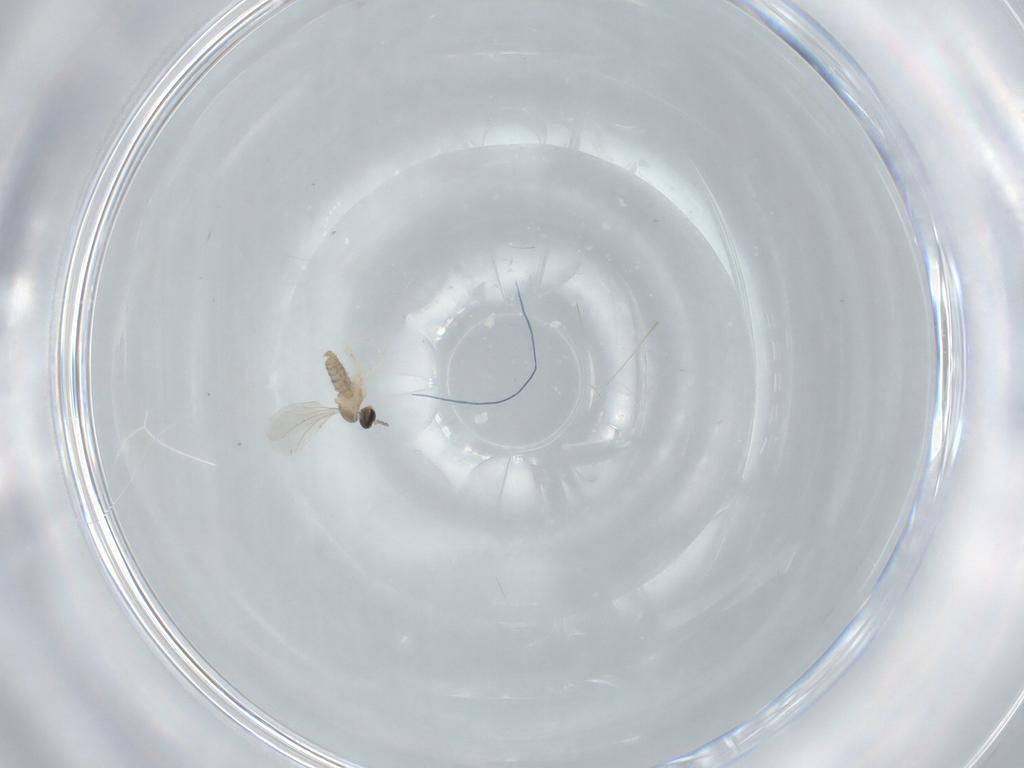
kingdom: Animalia
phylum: Arthropoda
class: Insecta
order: Diptera
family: Cecidomyiidae
